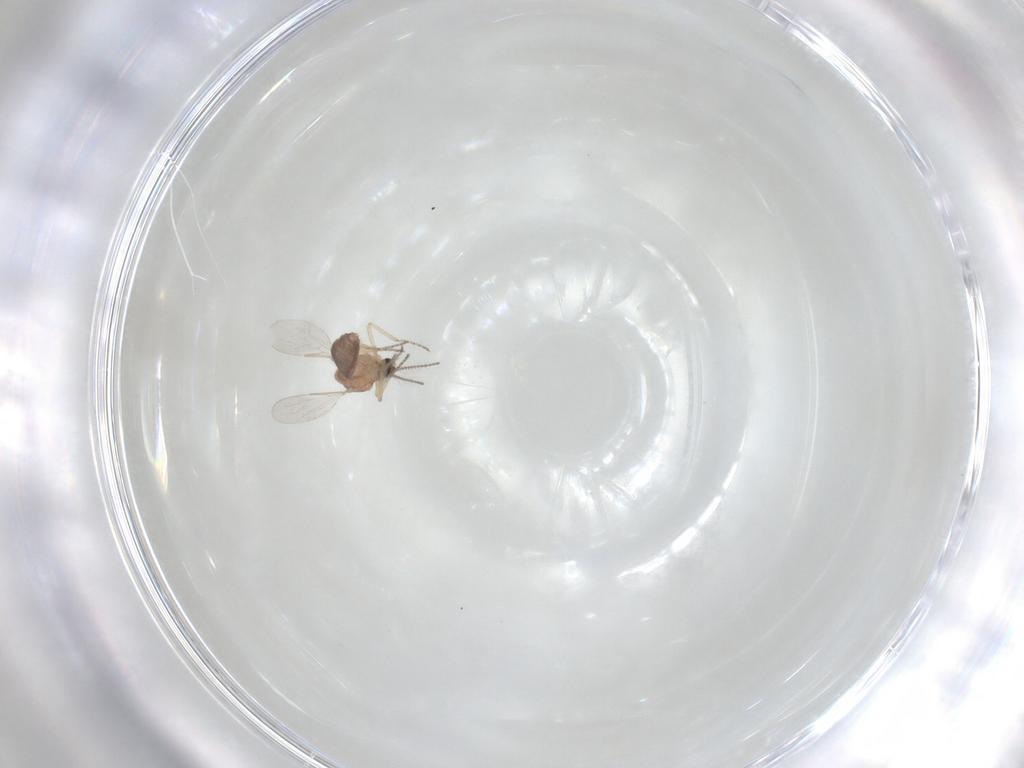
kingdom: Animalia
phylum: Arthropoda
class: Insecta
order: Diptera
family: Ceratopogonidae
